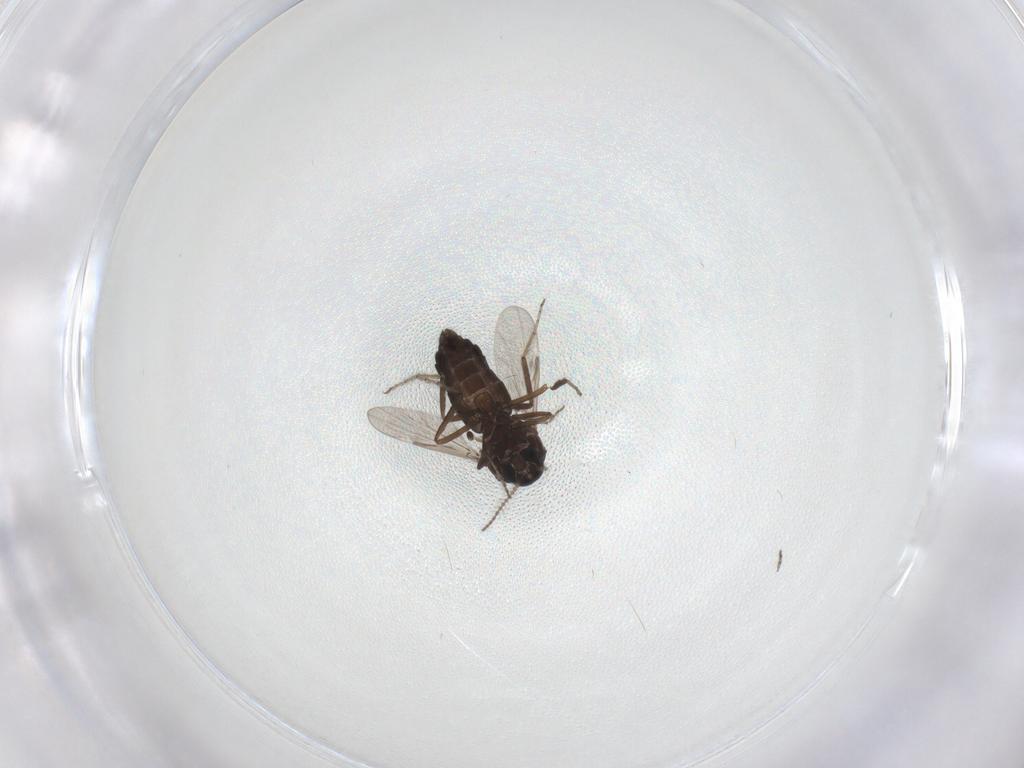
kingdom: Animalia
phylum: Arthropoda
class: Insecta
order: Diptera
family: Ceratopogonidae
